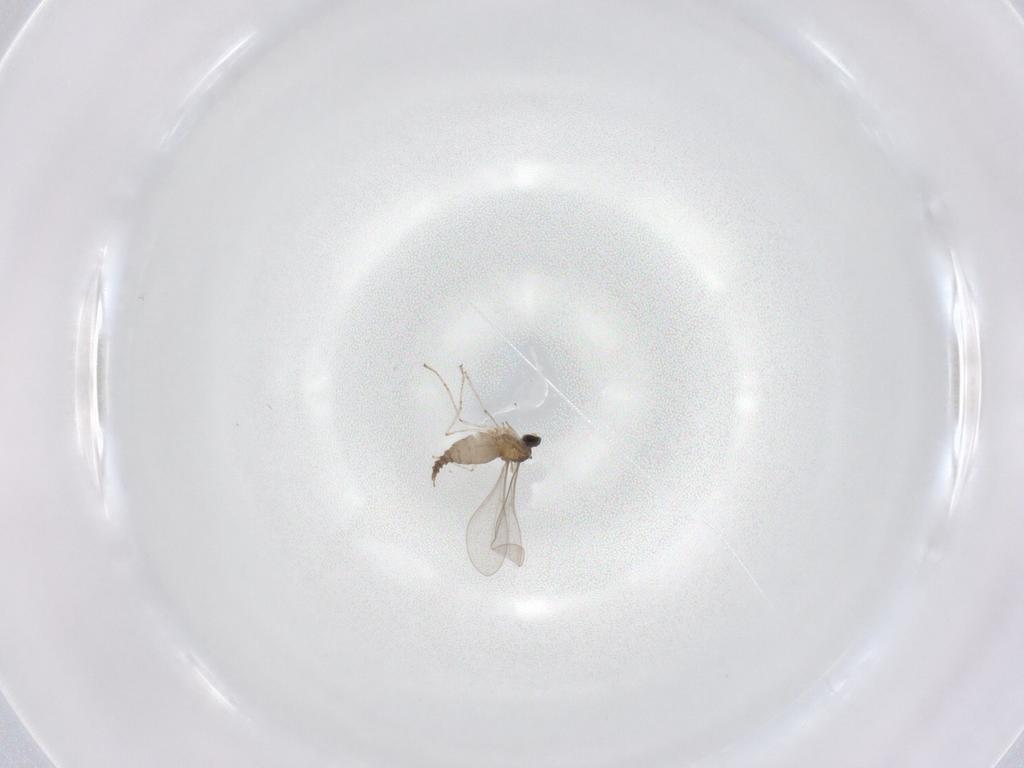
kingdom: Animalia
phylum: Arthropoda
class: Insecta
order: Diptera
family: Cecidomyiidae
